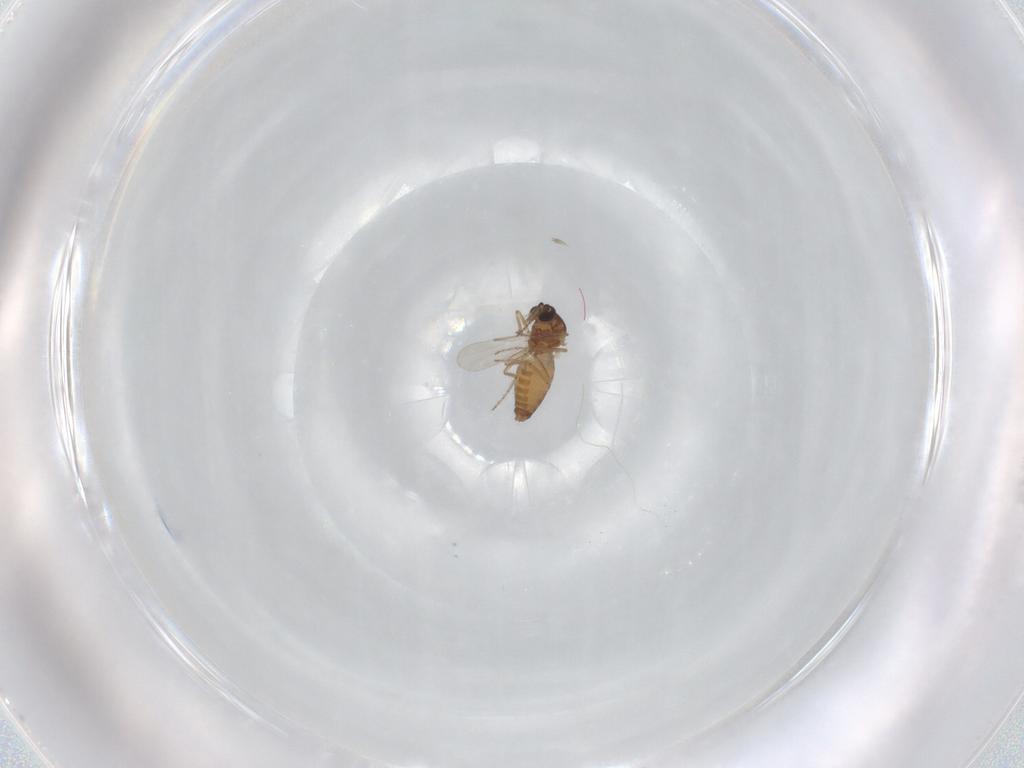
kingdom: Animalia
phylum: Arthropoda
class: Insecta
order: Diptera
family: Ceratopogonidae
